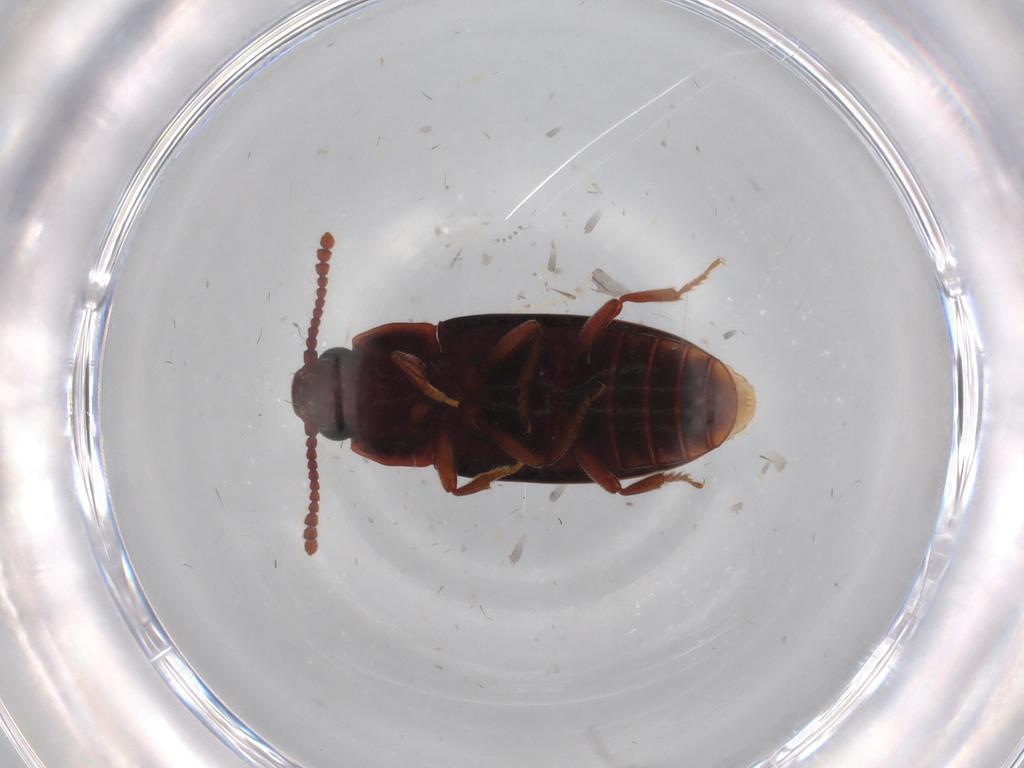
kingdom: Animalia
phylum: Arthropoda
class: Insecta
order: Coleoptera
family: Erotylidae
